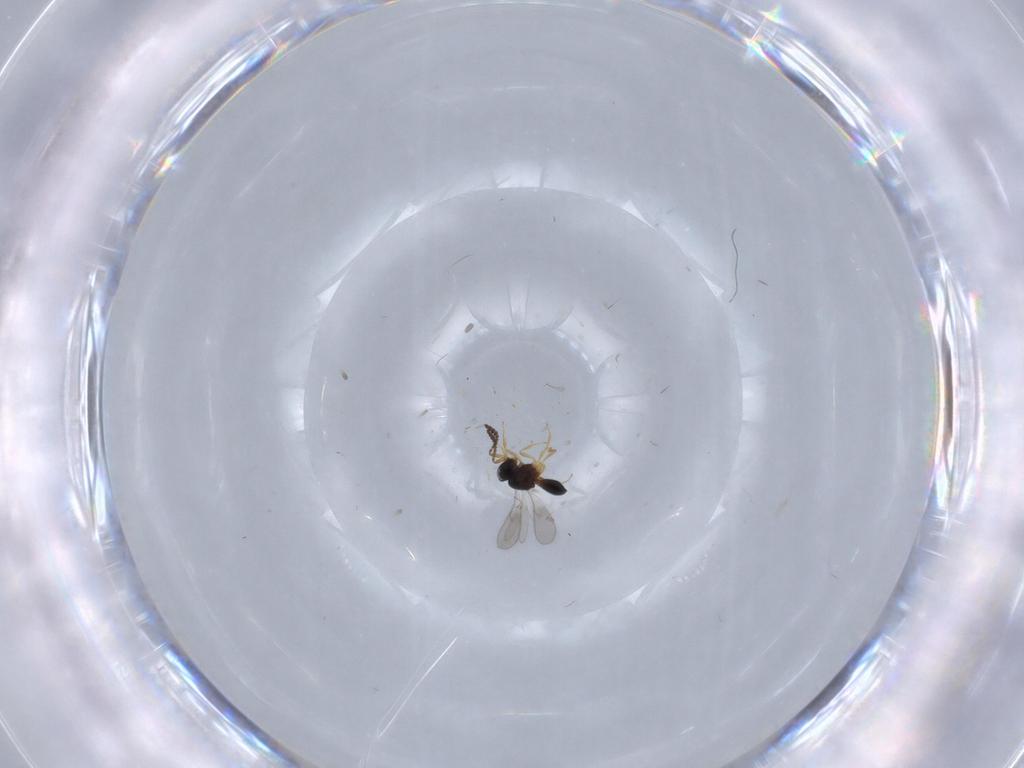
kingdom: Animalia
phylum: Arthropoda
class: Insecta
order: Hymenoptera
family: Scelionidae
